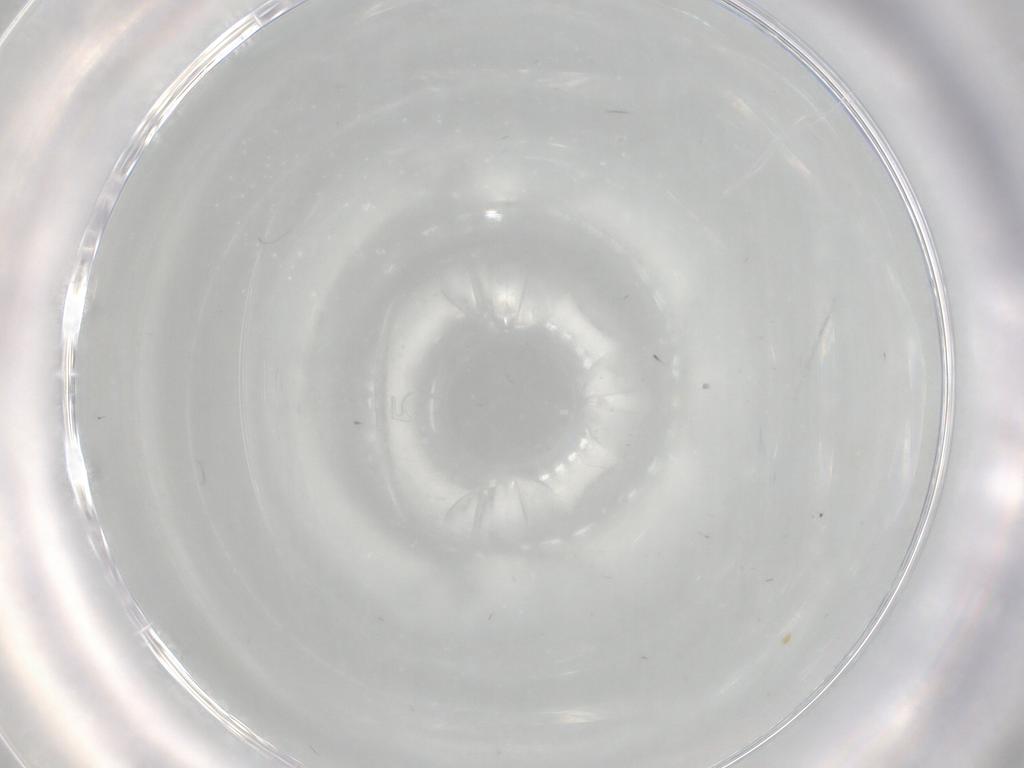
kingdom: Animalia
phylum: Arthropoda
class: Insecta
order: Diptera
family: Limoniidae
